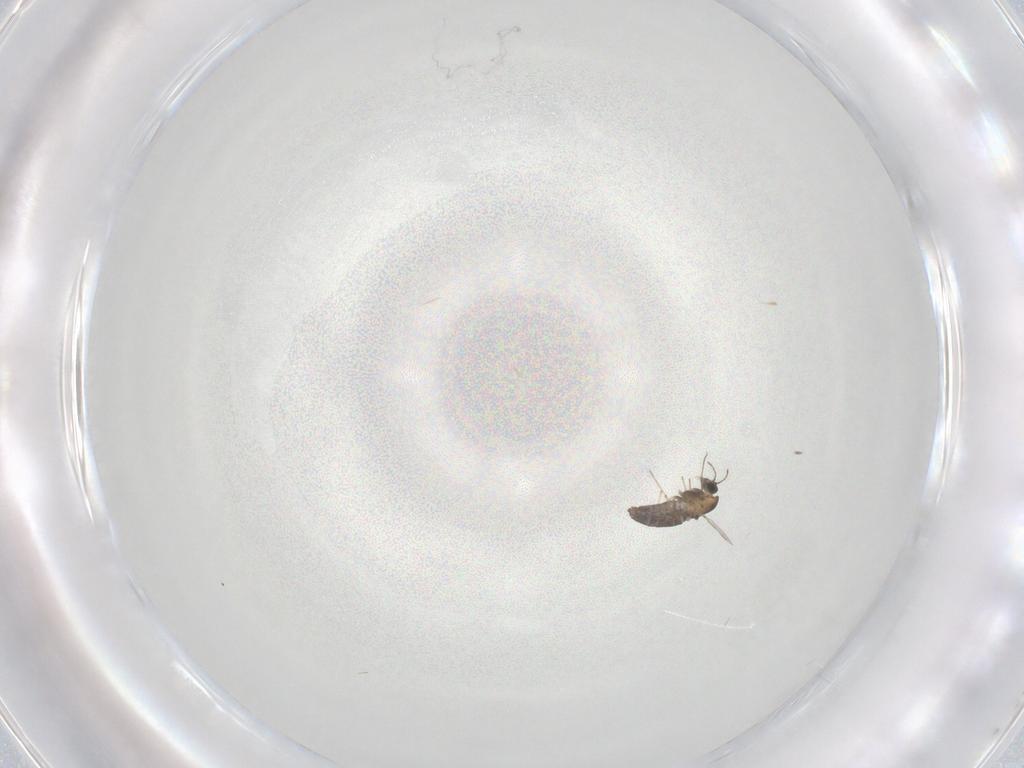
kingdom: Animalia
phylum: Arthropoda
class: Insecta
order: Diptera
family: Chironomidae
